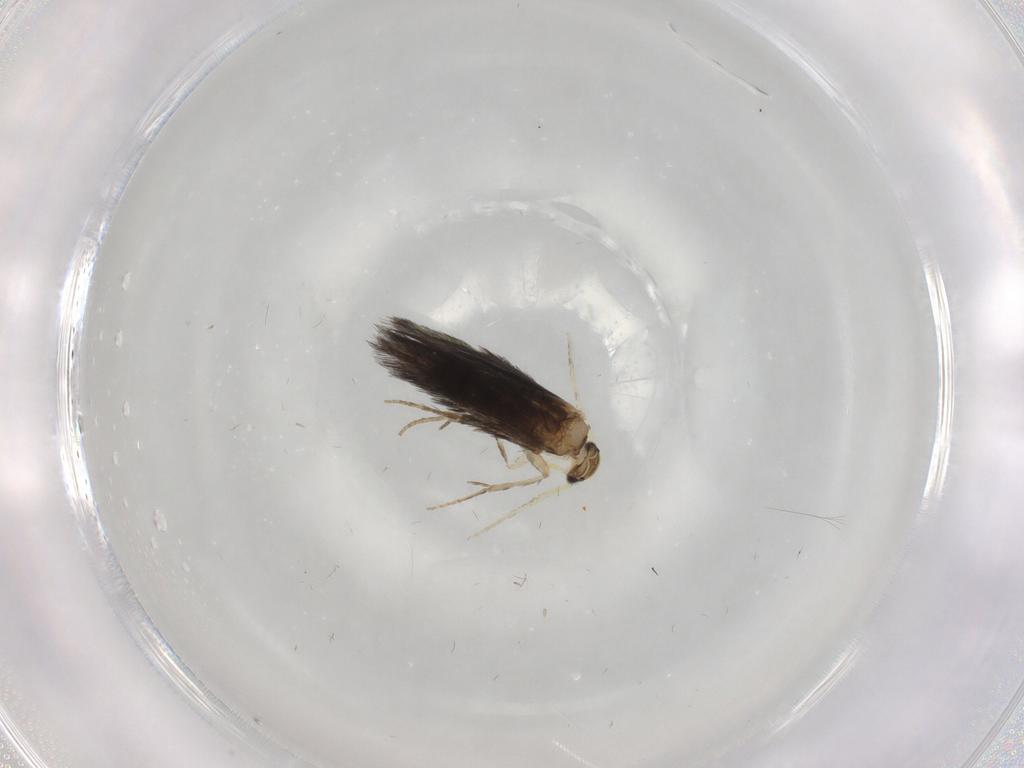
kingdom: Animalia
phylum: Arthropoda
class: Insecta
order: Trichoptera
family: Hydroptilidae
